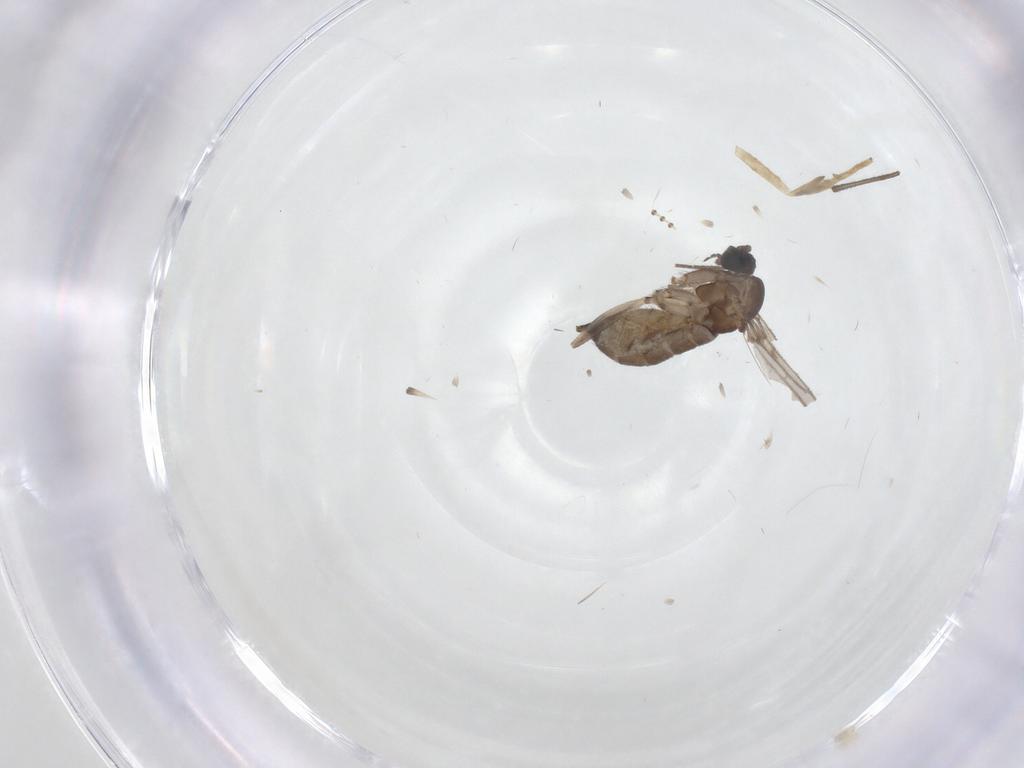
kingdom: Animalia
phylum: Arthropoda
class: Insecta
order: Diptera
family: Sciaridae
